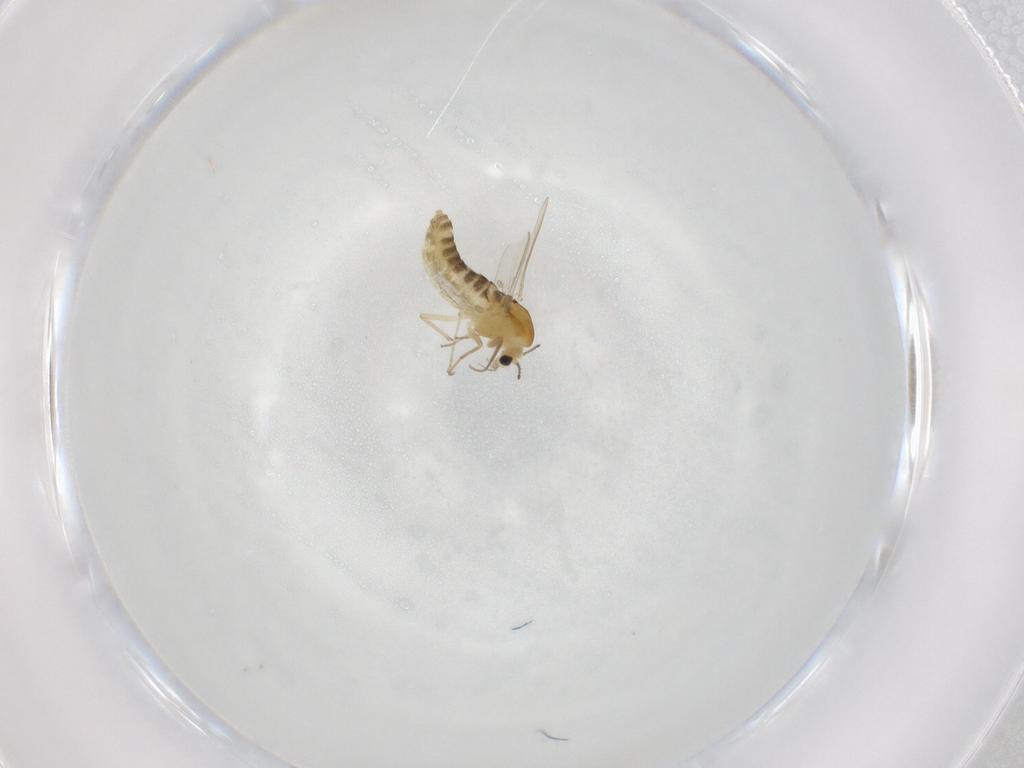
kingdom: Animalia
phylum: Arthropoda
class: Insecta
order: Diptera
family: Chironomidae
